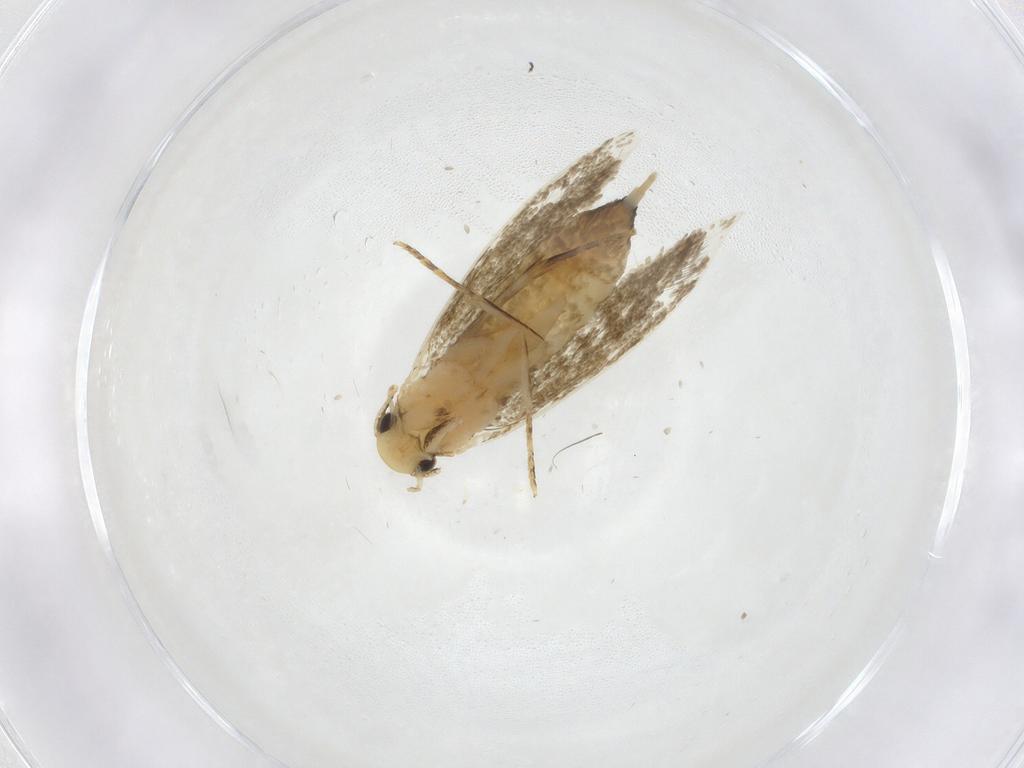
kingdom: Animalia
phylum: Arthropoda
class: Insecta
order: Lepidoptera
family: Tineidae
